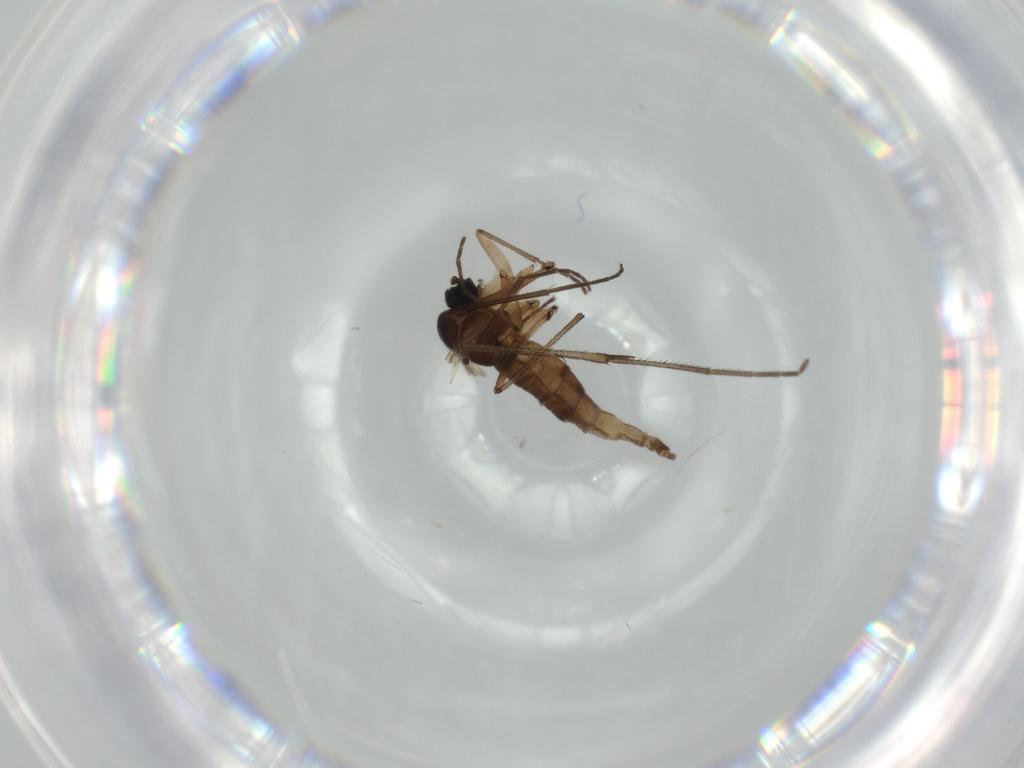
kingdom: Animalia
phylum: Arthropoda
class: Insecta
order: Diptera
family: Sciaridae
